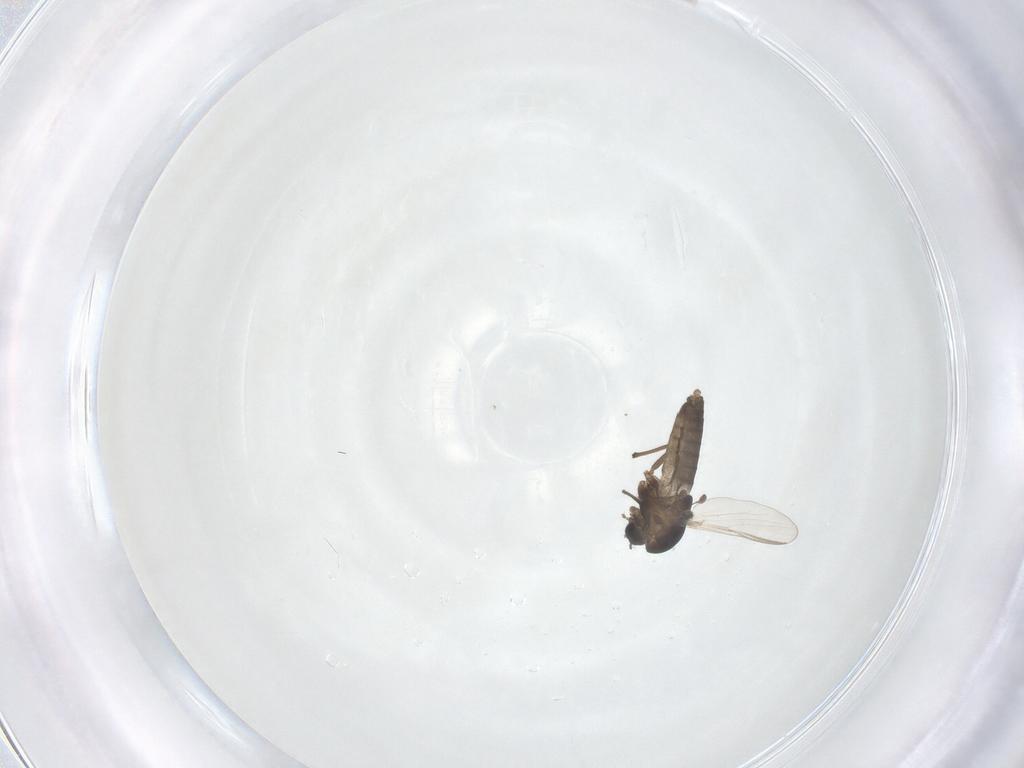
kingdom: Animalia
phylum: Arthropoda
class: Insecta
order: Diptera
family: Chironomidae
